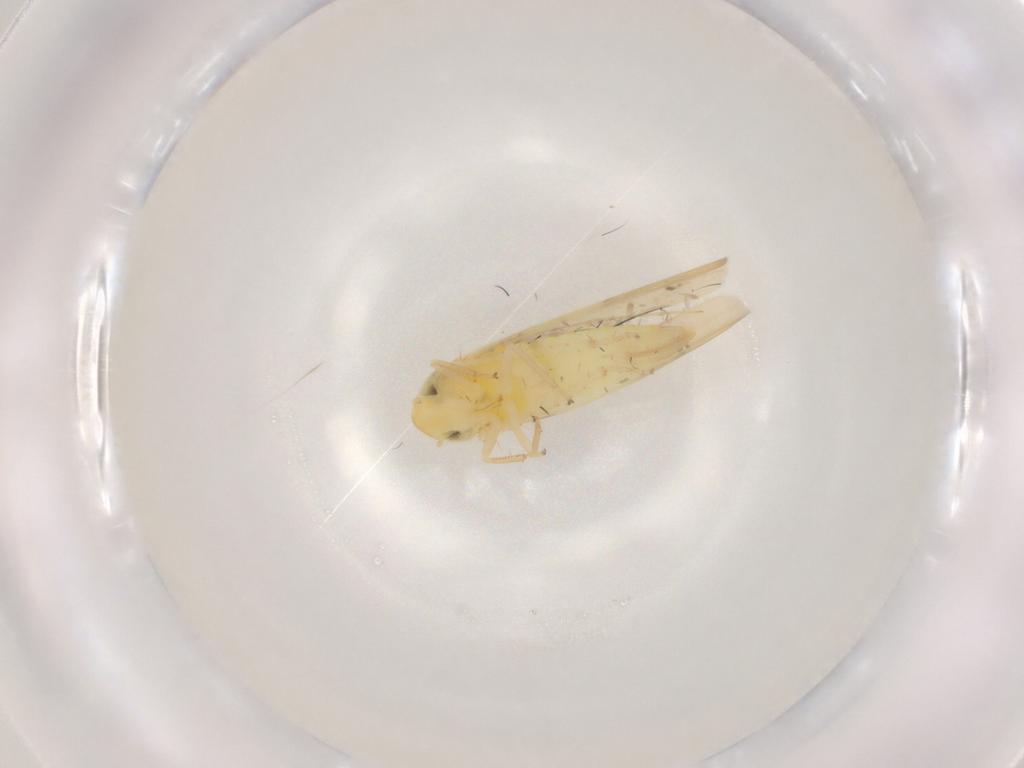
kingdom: Animalia
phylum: Arthropoda
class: Insecta
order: Hemiptera
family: Cicadellidae
